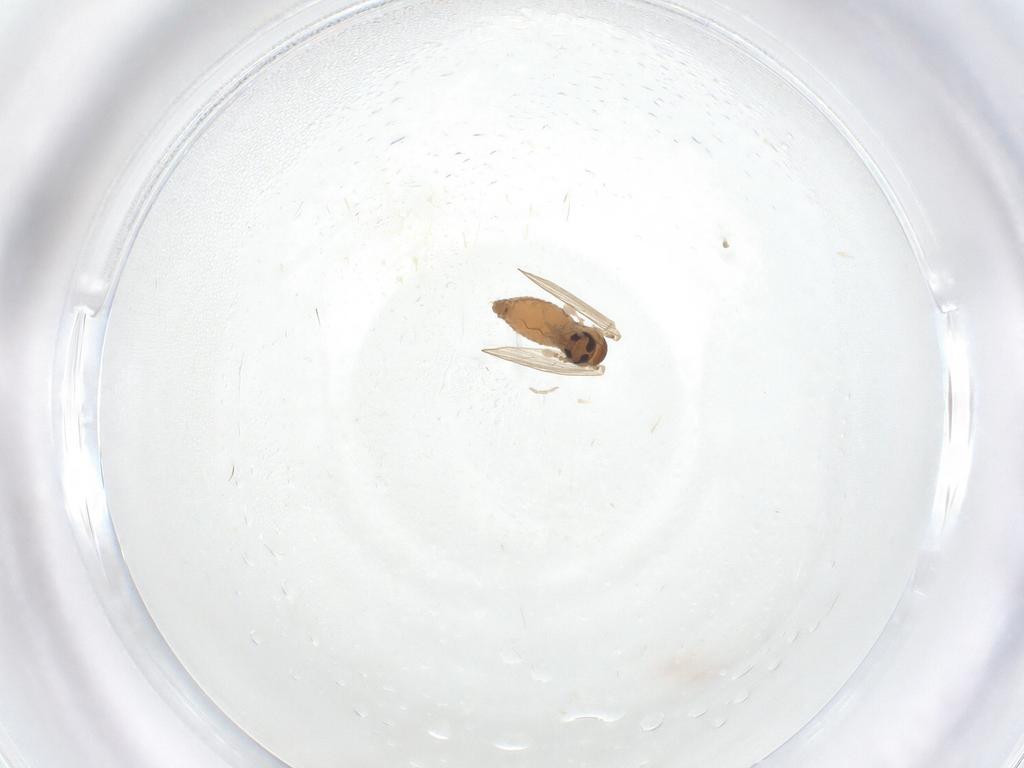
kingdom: Animalia
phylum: Arthropoda
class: Insecta
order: Diptera
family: Psychodidae
